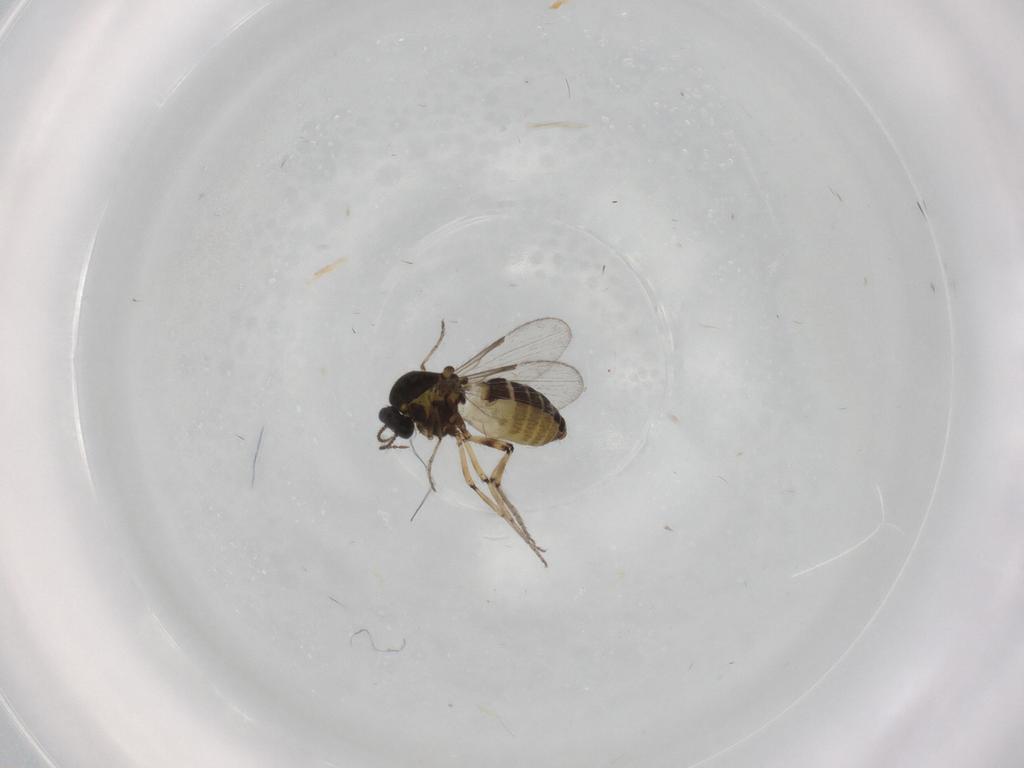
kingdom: Animalia
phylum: Arthropoda
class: Insecta
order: Diptera
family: Ceratopogonidae
